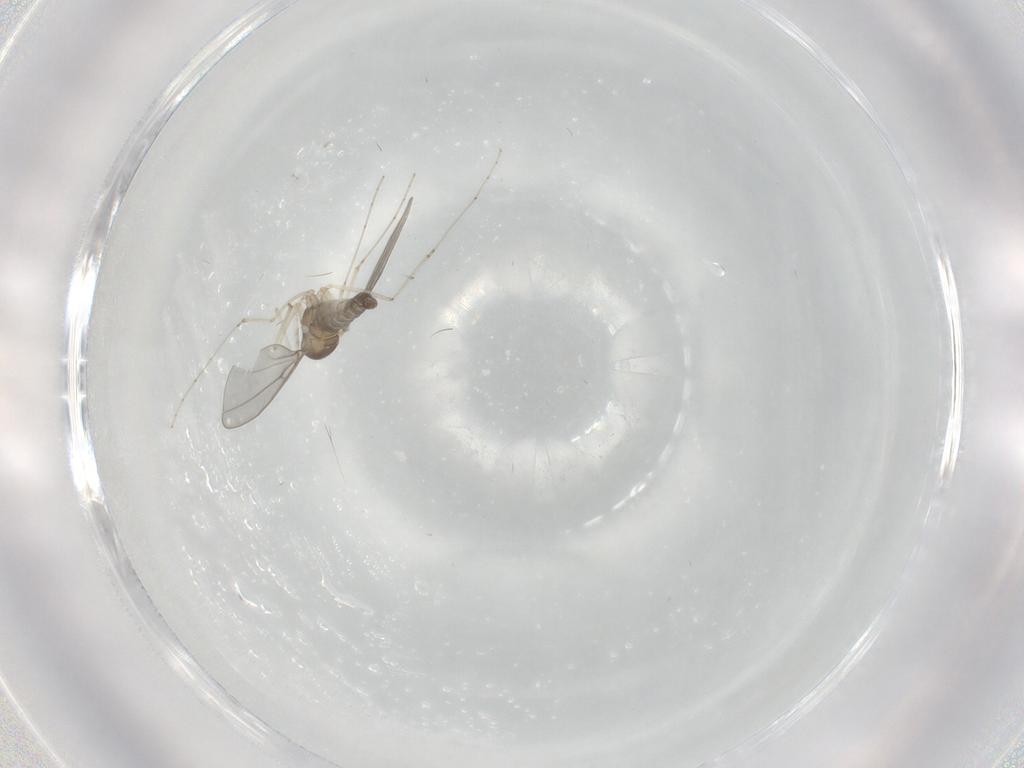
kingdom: Animalia
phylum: Arthropoda
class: Insecta
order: Diptera
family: Cecidomyiidae
